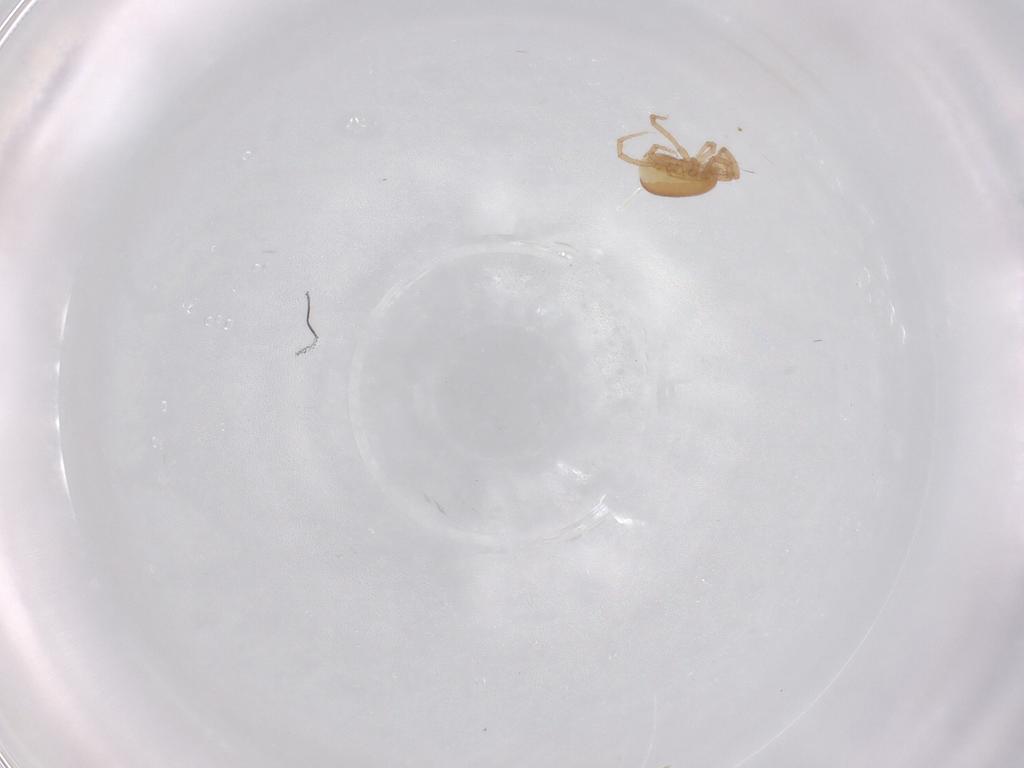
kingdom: Animalia
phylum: Arthropoda
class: Arachnida
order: Mesostigmata
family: Parasitidae
